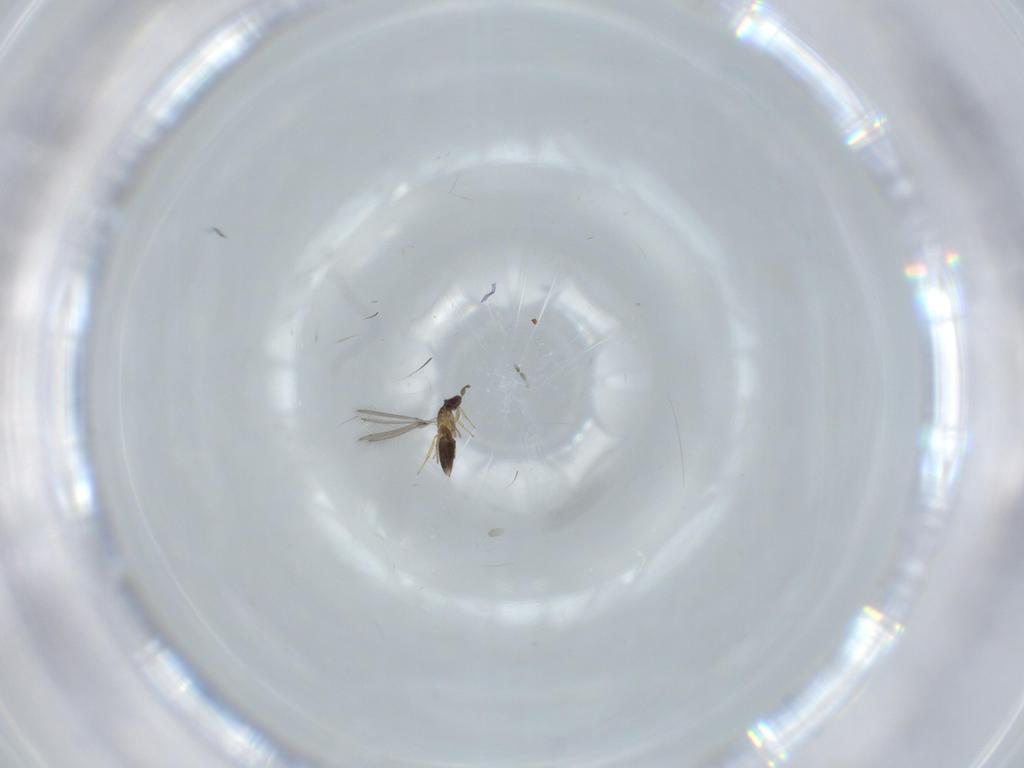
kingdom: Animalia
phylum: Arthropoda
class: Insecta
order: Hymenoptera
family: Mymaridae
